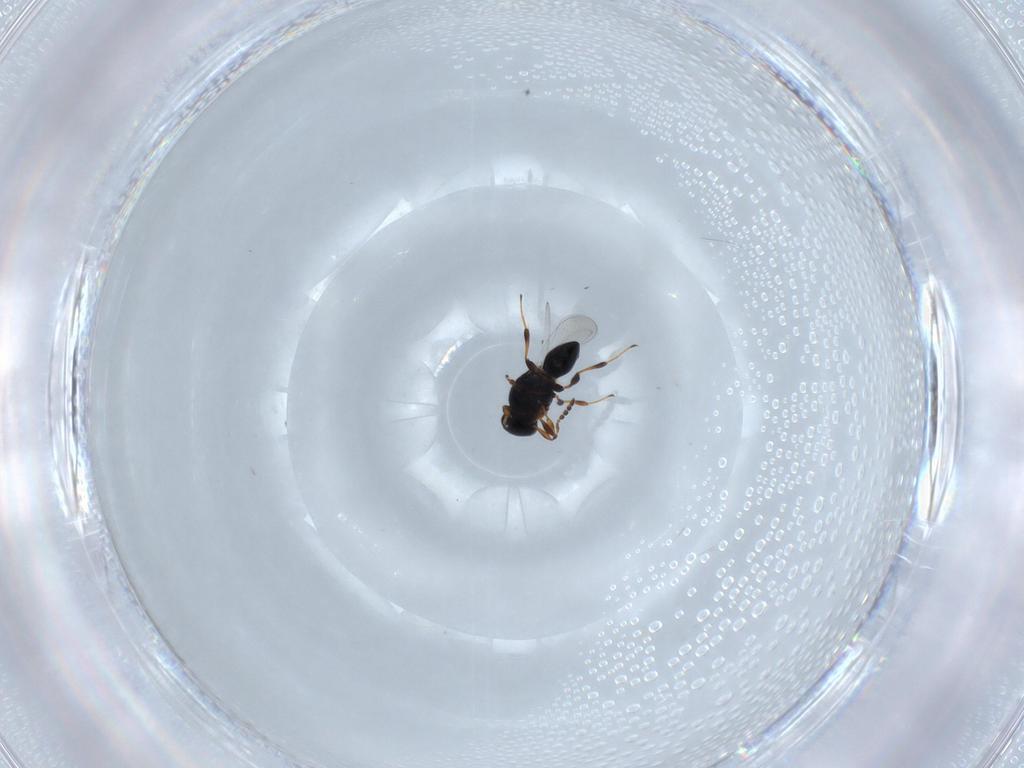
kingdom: Animalia
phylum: Arthropoda
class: Insecta
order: Hymenoptera
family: Platygastridae
